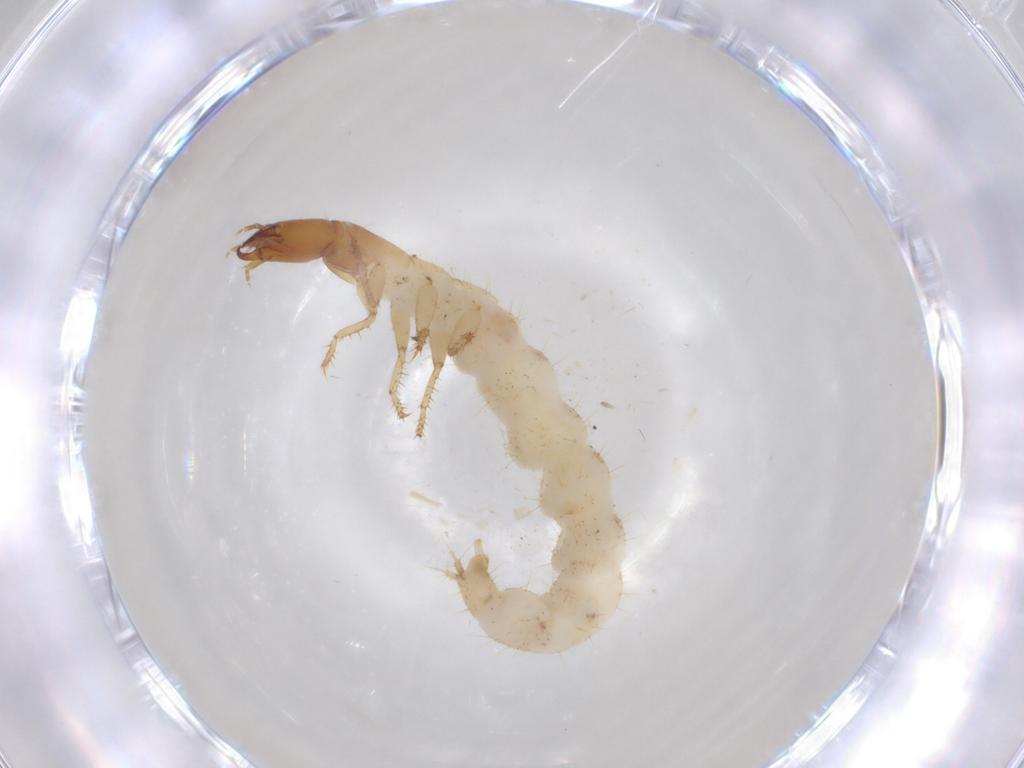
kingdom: Animalia
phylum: Arthropoda
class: Insecta
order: Coleoptera
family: Staphylinidae
